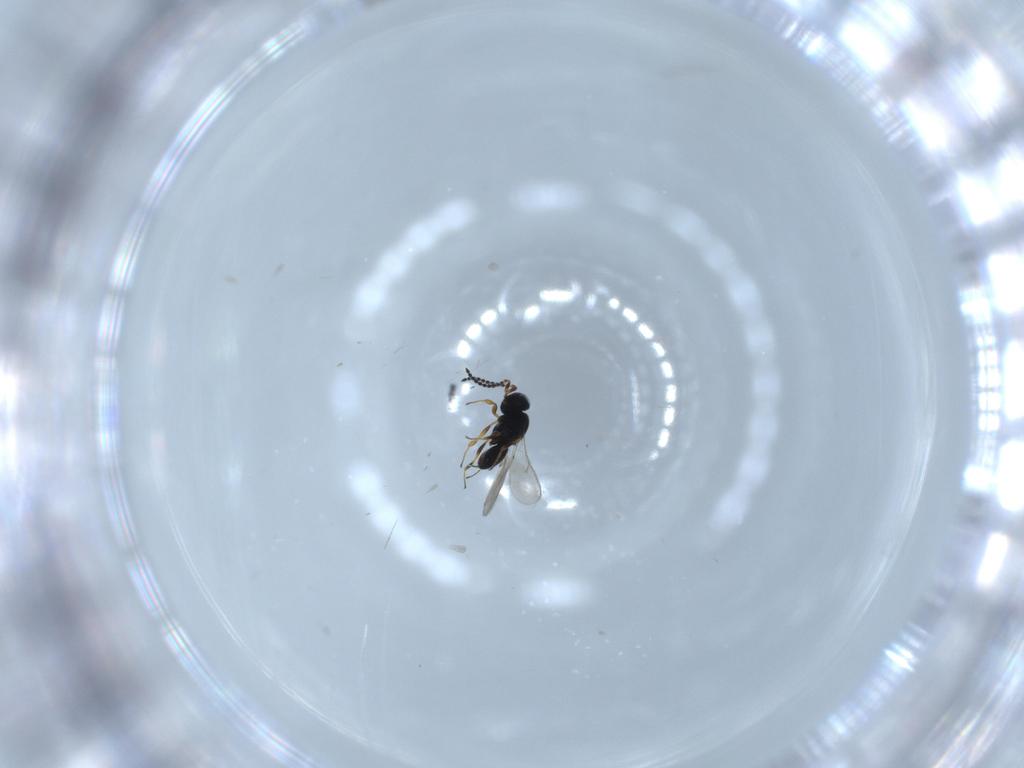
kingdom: Animalia
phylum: Arthropoda
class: Insecta
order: Hymenoptera
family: Scelionidae
